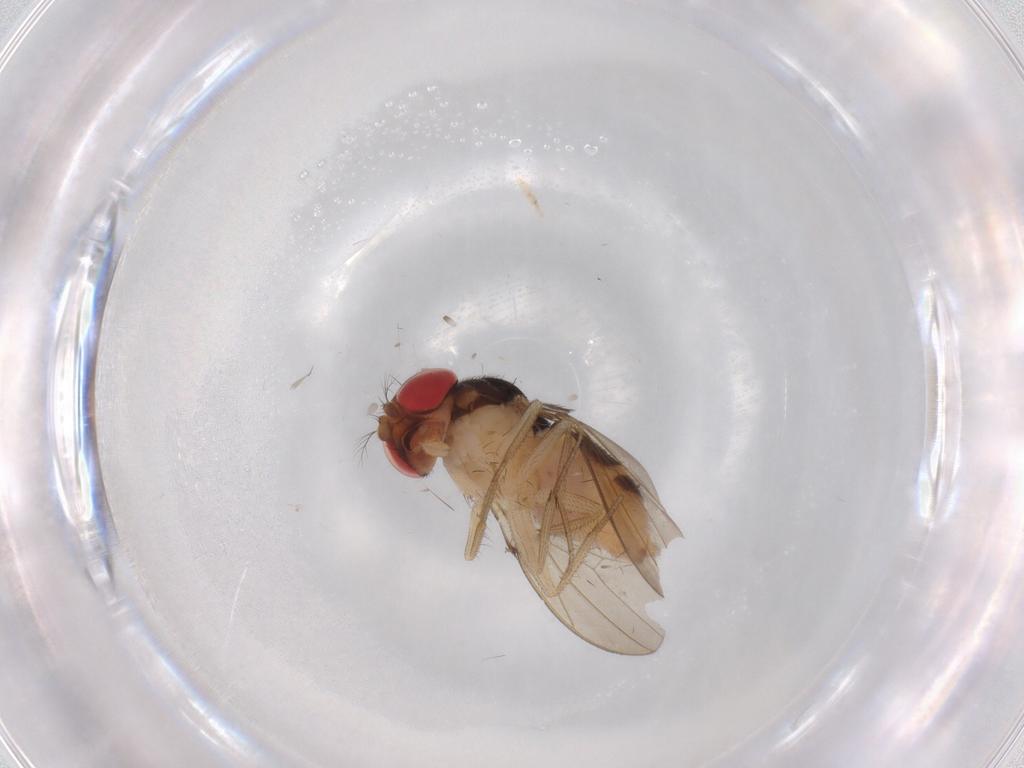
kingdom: Animalia
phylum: Arthropoda
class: Insecta
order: Diptera
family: Drosophilidae
